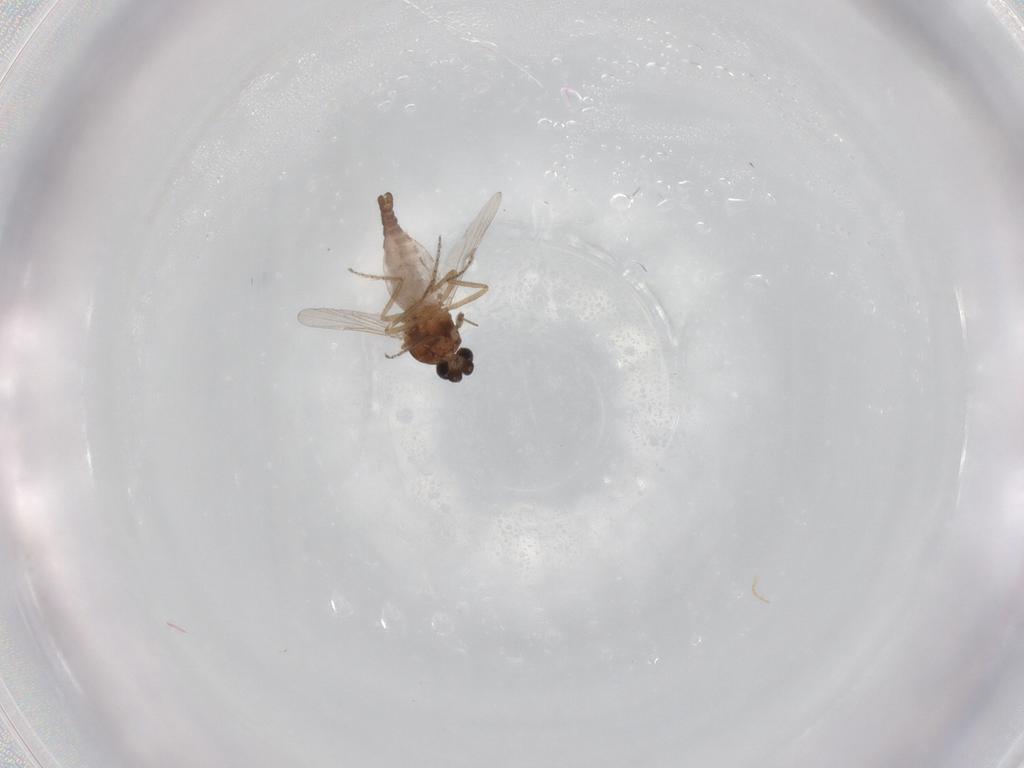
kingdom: Animalia
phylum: Arthropoda
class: Insecta
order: Diptera
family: Ceratopogonidae
